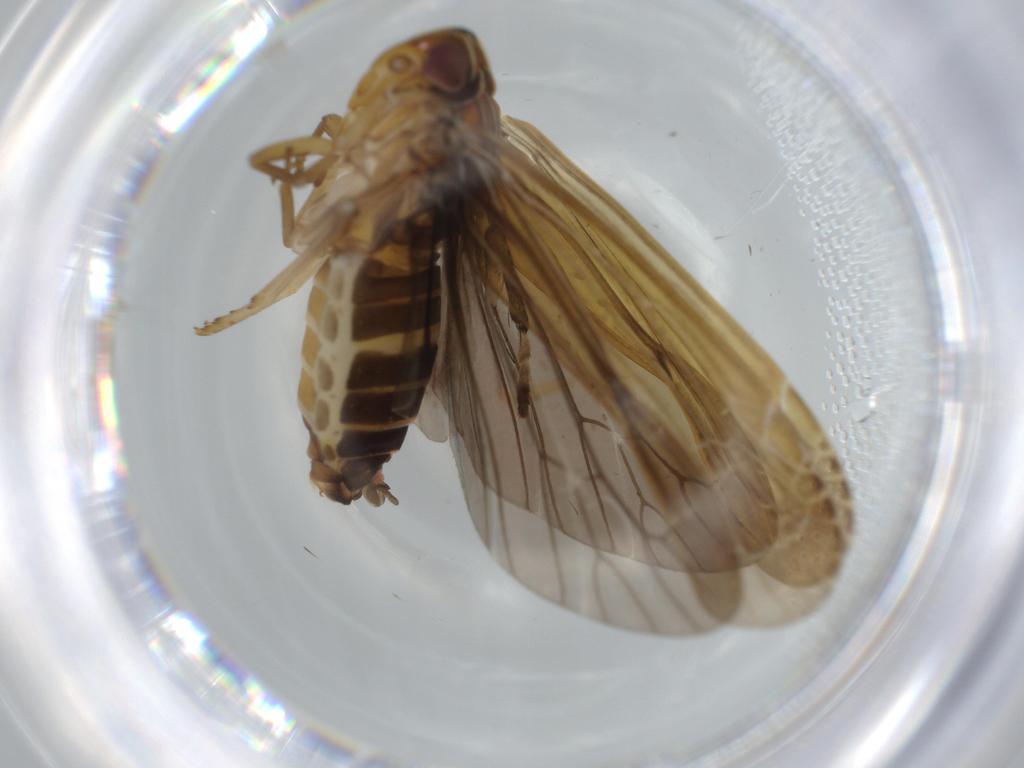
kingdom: Animalia
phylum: Arthropoda
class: Insecta
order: Hemiptera
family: Achilidae
